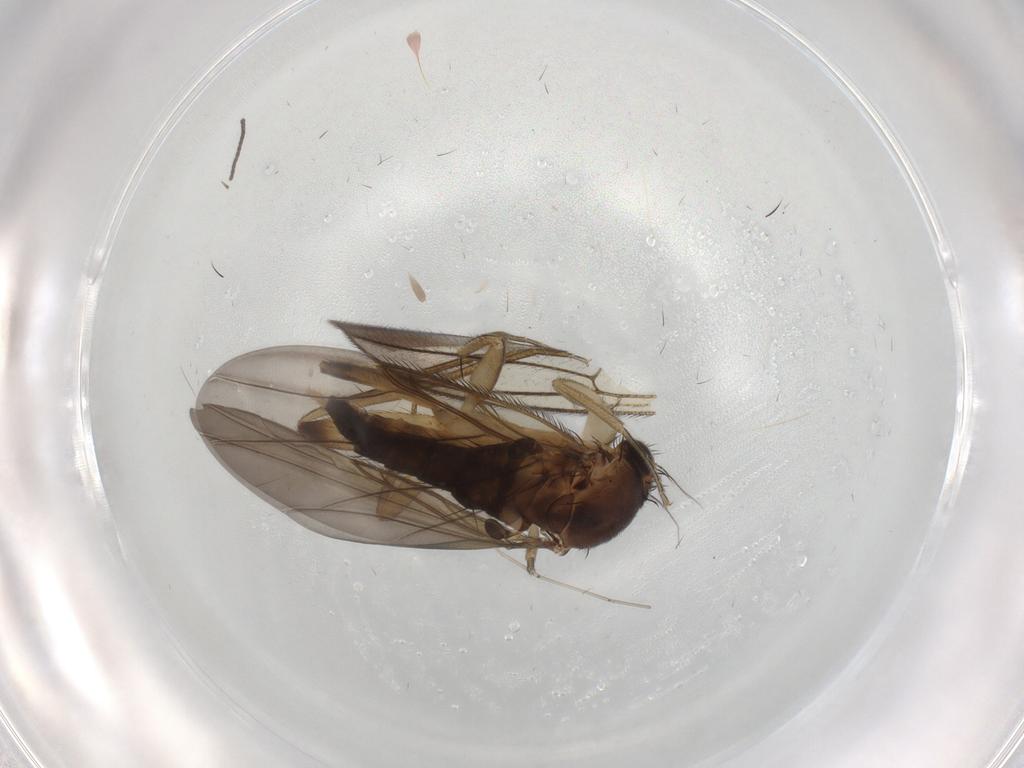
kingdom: Animalia
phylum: Arthropoda
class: Insecta
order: Diptera
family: Phoridae
